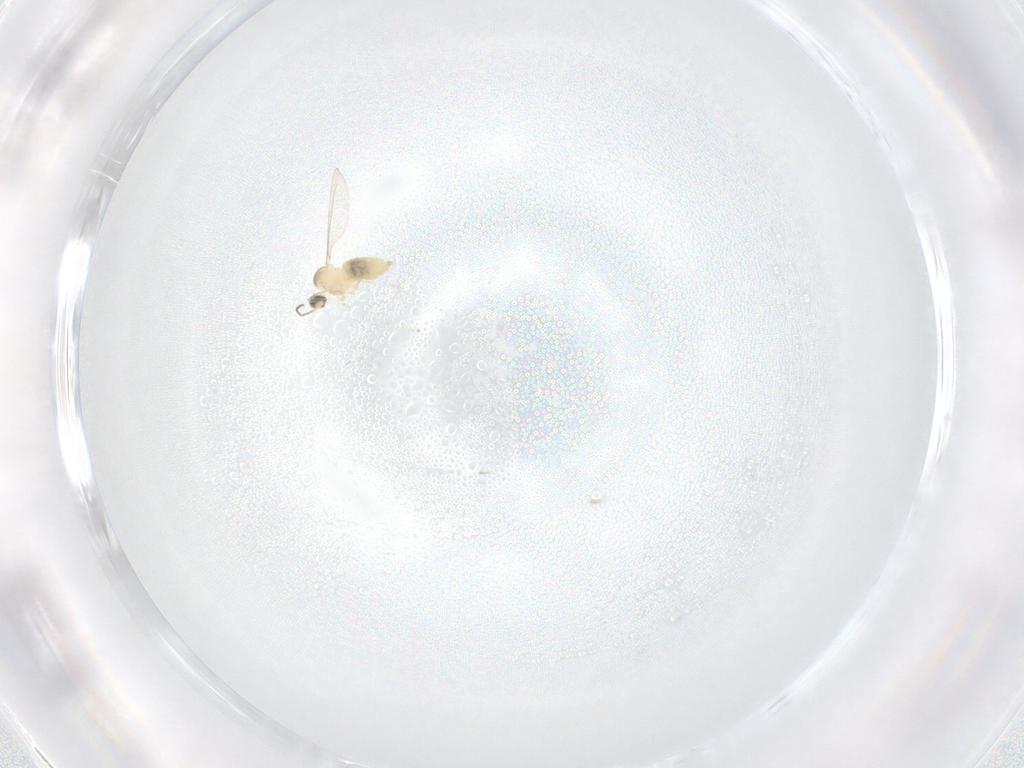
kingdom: Animalia
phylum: Arthropoda
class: Insecta
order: Diptera
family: Cecidomyiidae
